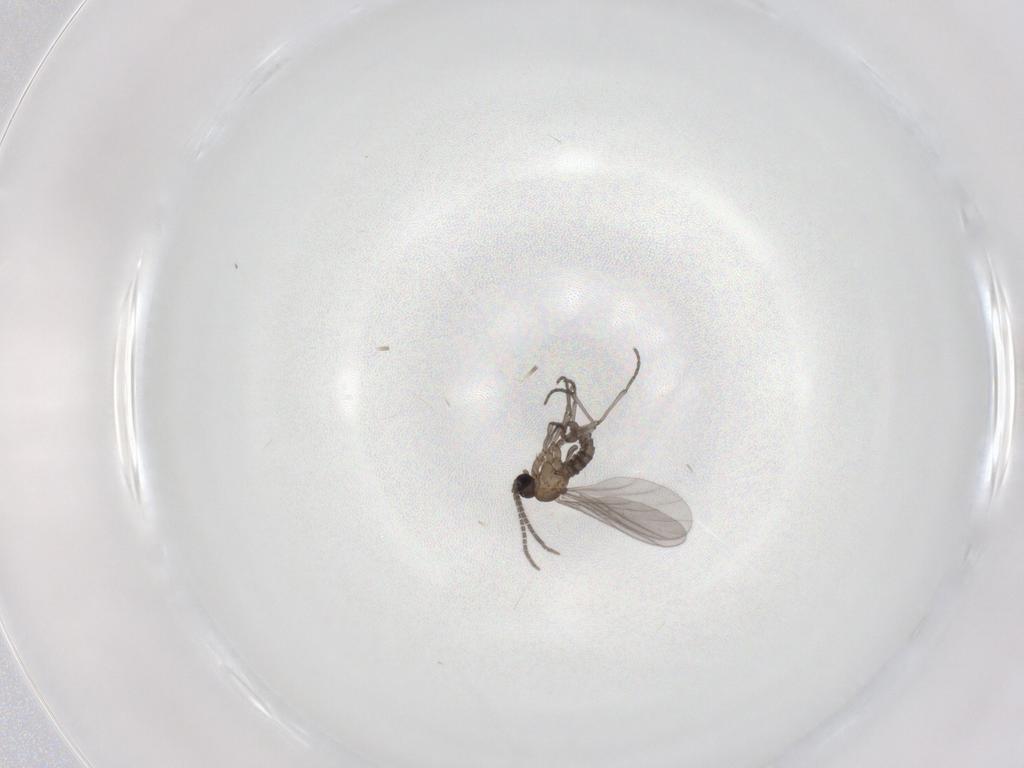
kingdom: Animalia
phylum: Arthropoda
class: Insecta
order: Diptera
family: Sciaridae
